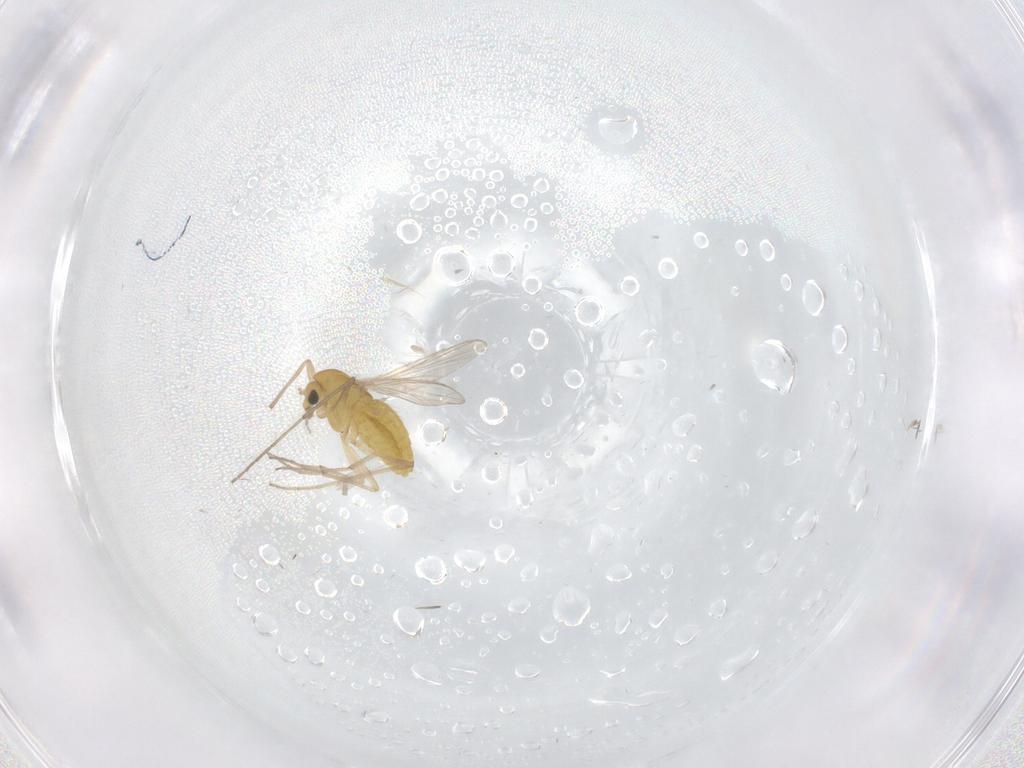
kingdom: Animalia
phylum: Arthropoda
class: Insecta
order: Diptera
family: Chironomidae
